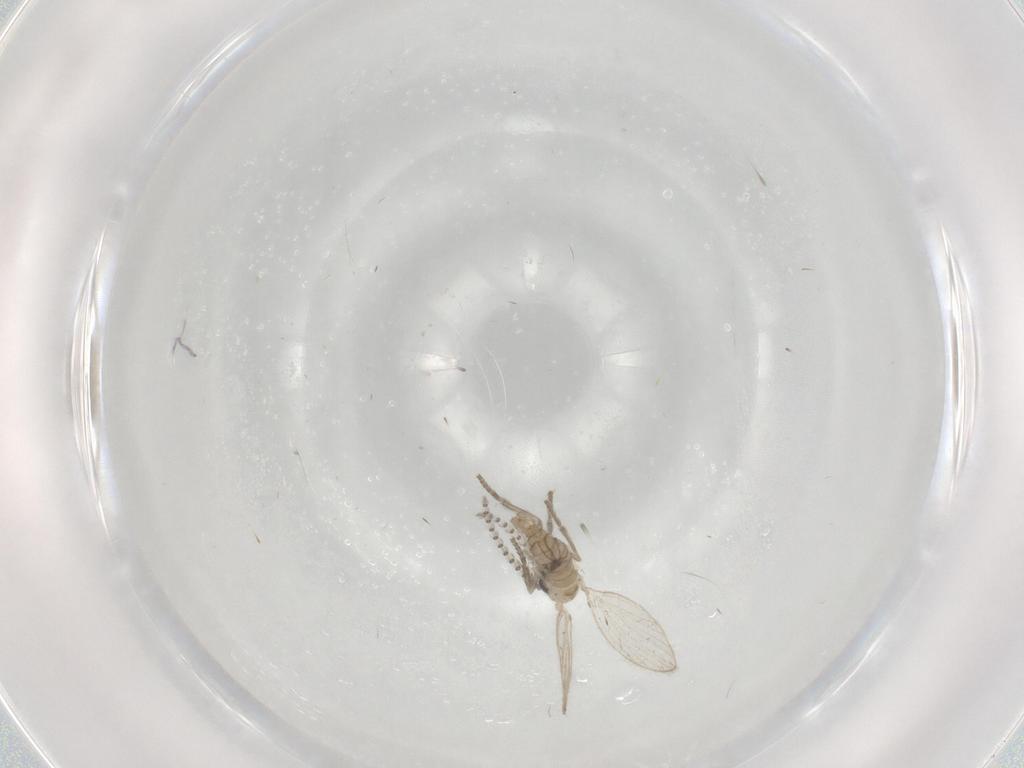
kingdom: Animalia
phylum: Arthropoda
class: Insecta
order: Diptera
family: Psychodidae
